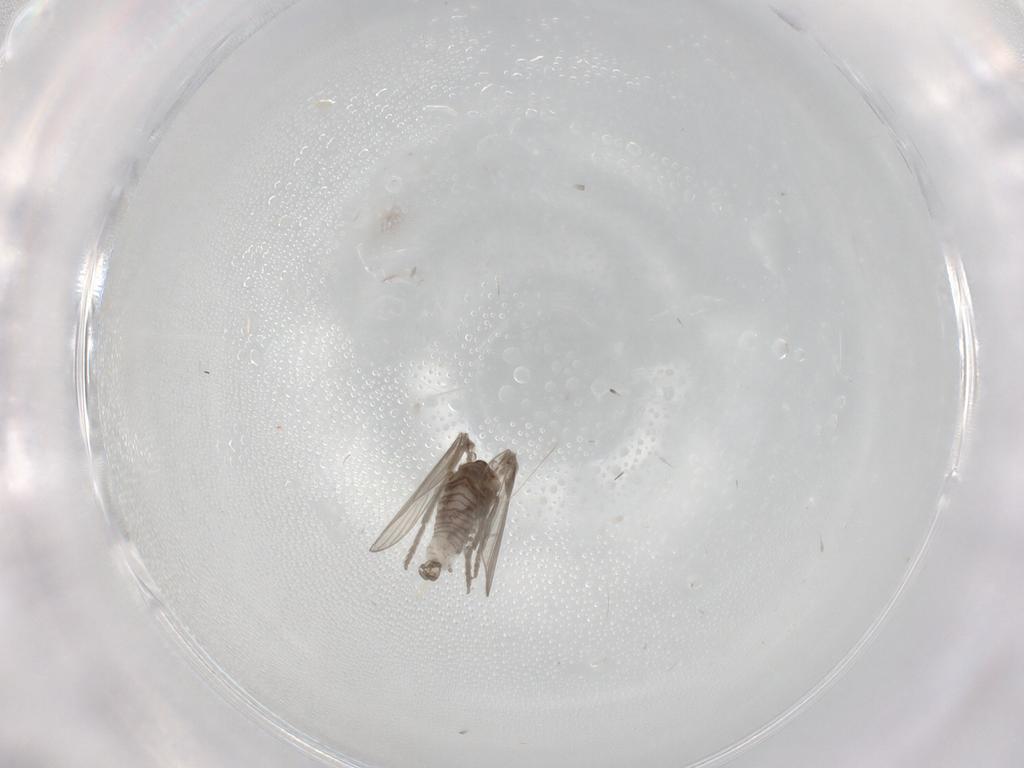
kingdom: Animalia
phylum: Arthropoda
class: Insecta
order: Diptera
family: Psychodidae
